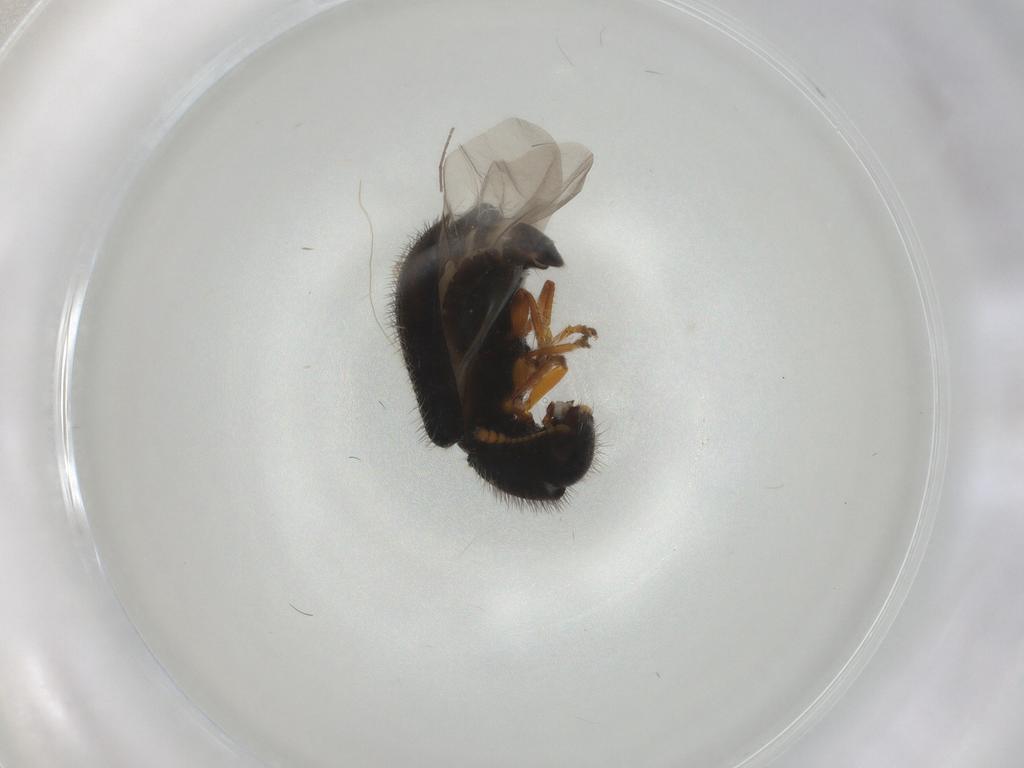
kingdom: Animalia
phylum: Arthropoda
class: Insecta
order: Coleoptera
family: Cleridae
